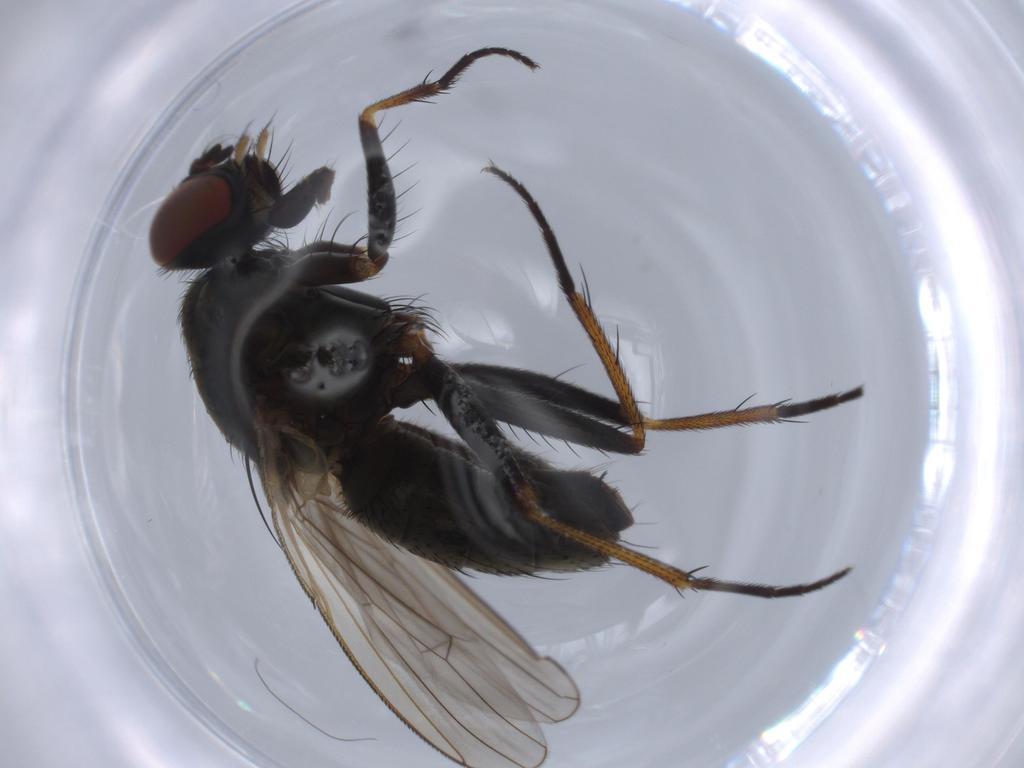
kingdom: Animalia
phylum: Arthropoda
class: Insecta
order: Diptera
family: Muscidae
